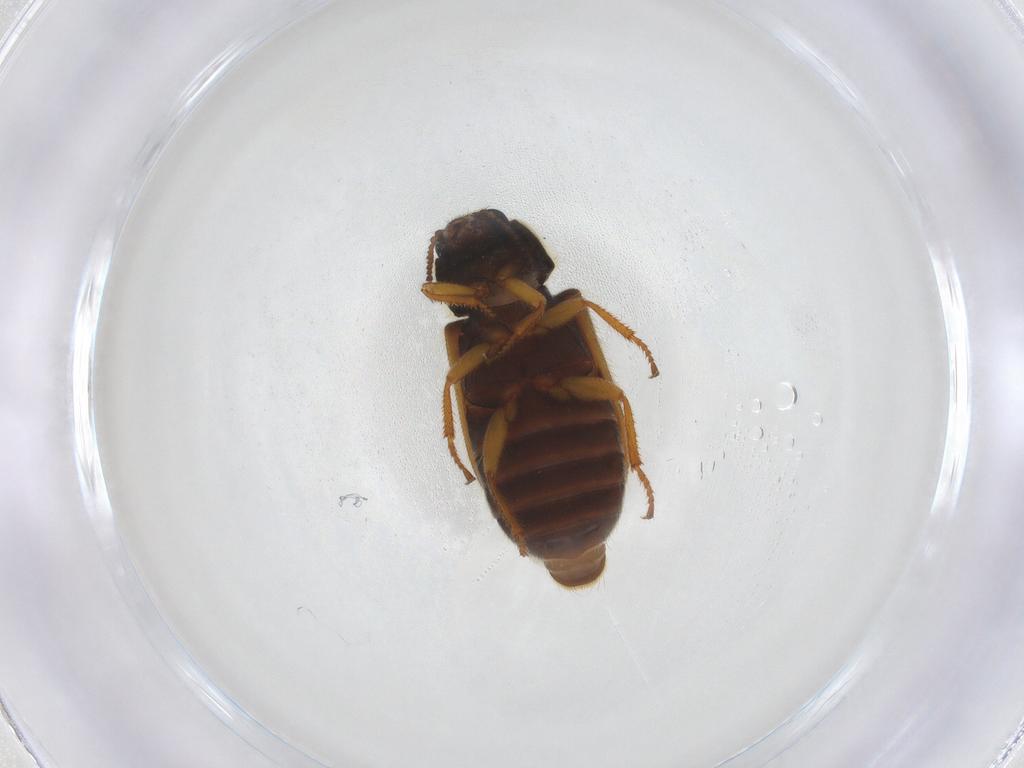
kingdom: Animalia
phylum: Arthropoda
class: Insecta
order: Coleoptera
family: Melyridae
